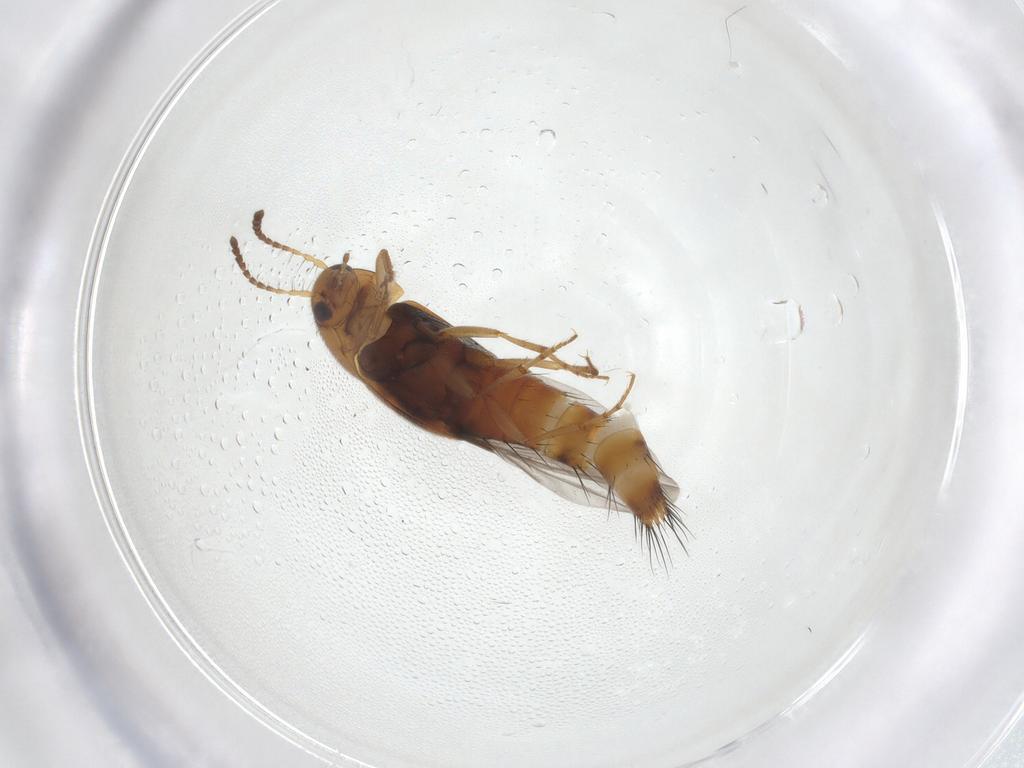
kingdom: Animalia
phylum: Arthropoda
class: Insecta
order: Coleoptera
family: Staphylinidae
